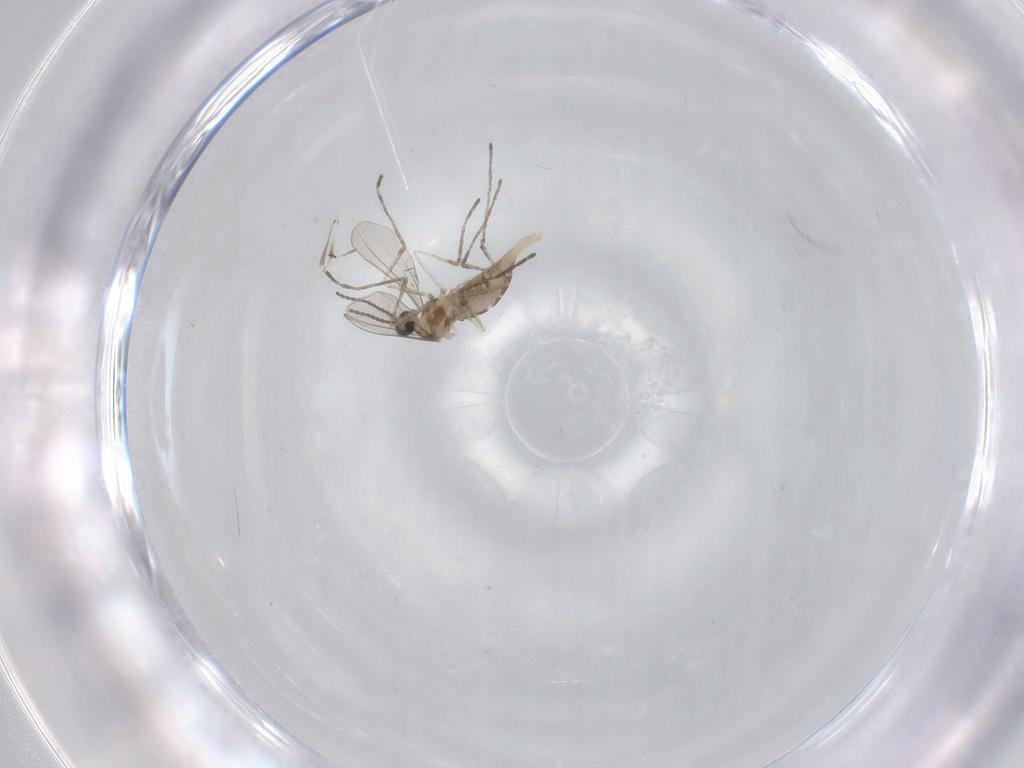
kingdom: Animalia
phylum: Arthropoda
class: Insecta
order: Diptera
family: Cecidomyiidae
